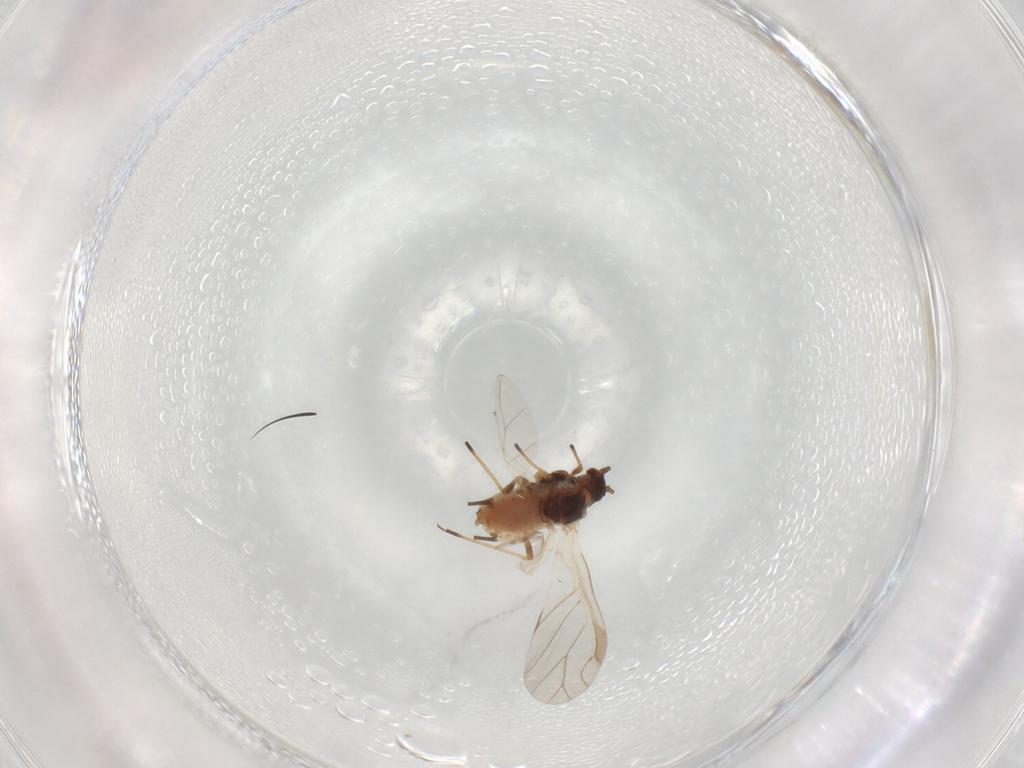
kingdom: Animalia
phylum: Arthropoda
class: Insecta
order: Hemiptera
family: Aphididae
